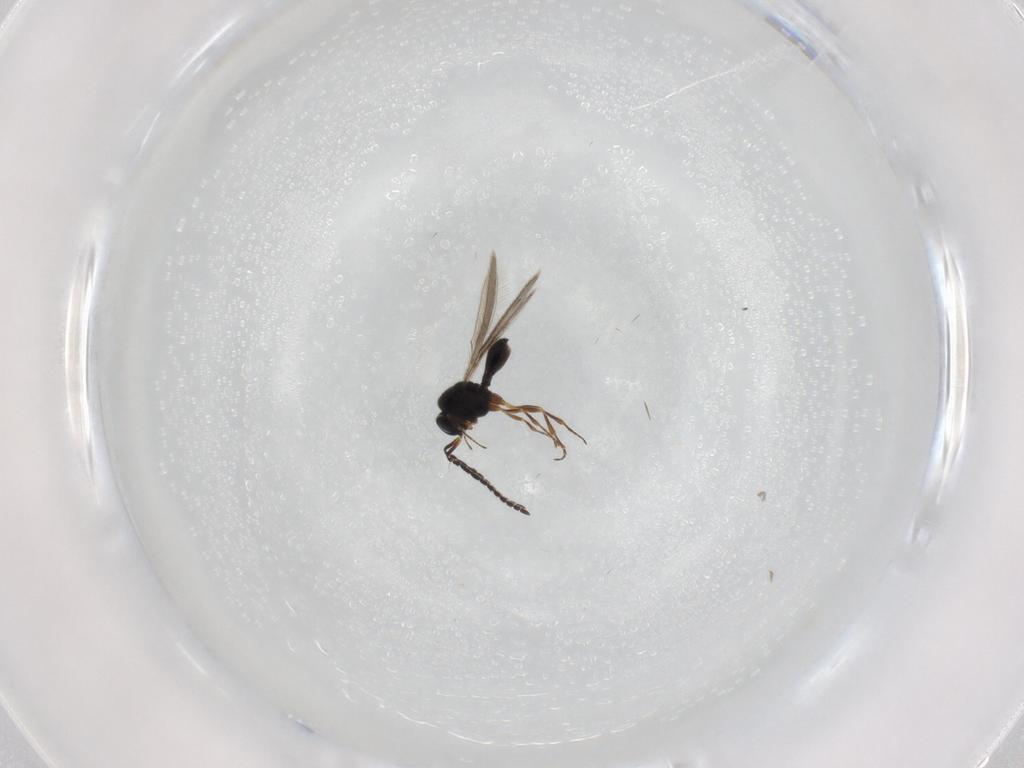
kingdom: Animalia
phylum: Arthropoda
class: Insecta
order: Hymenoptera
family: Scelionidae
